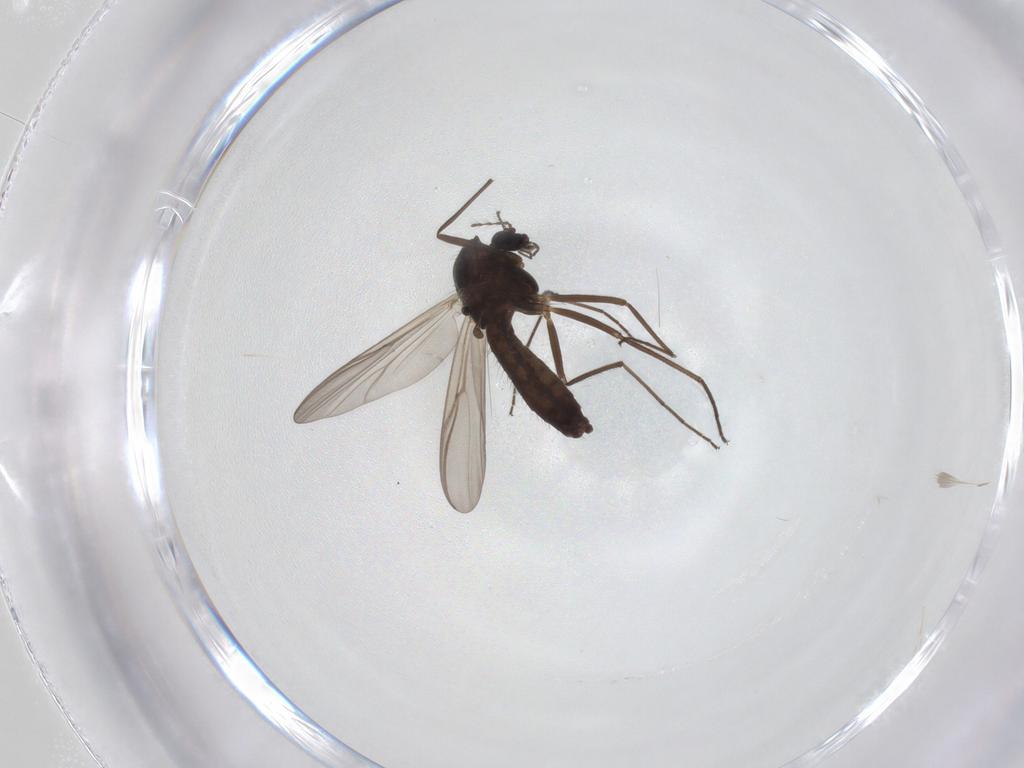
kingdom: Animalia
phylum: Arthropoda
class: Insecta
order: Diptera
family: Chironomidae
